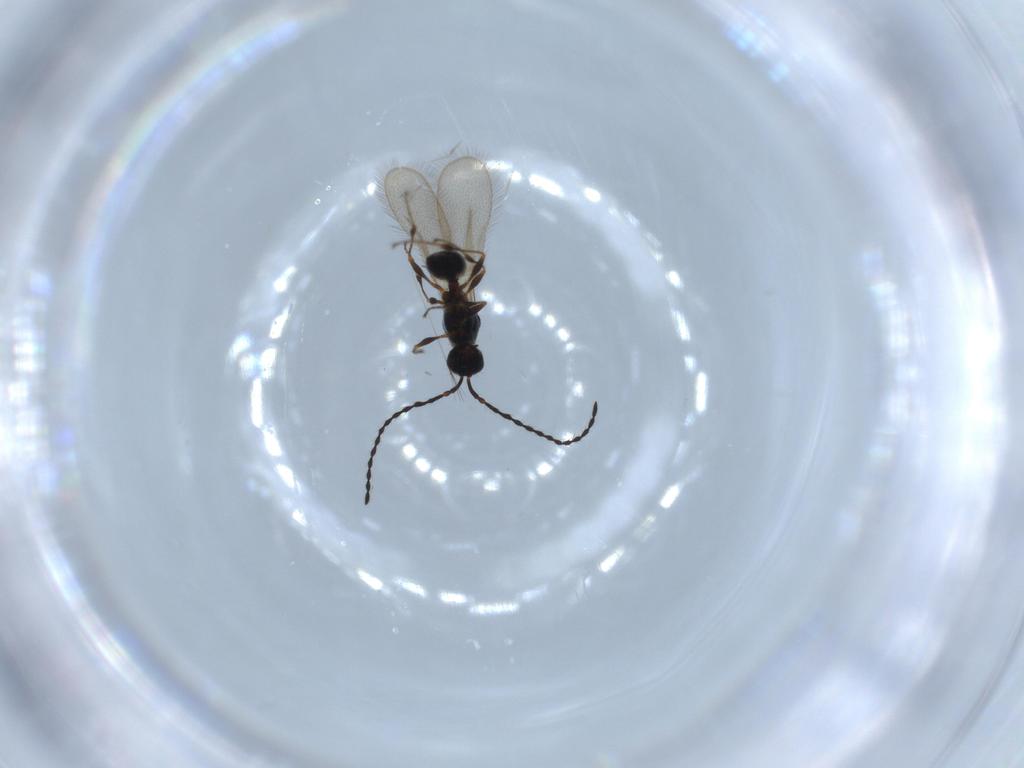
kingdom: Animalia
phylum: Arthropoda
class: Insecta
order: Hymenoptera
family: Diapriidae
